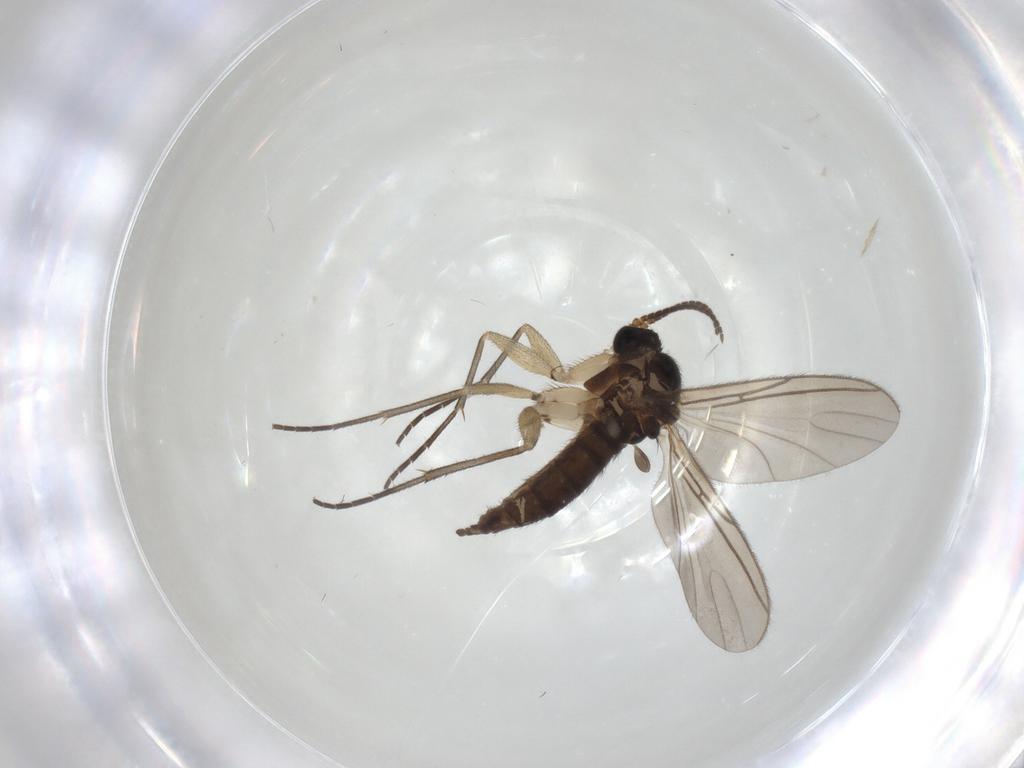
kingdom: Animalia
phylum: Arthropoda
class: Insecta
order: Diptera
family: Sciaridae
